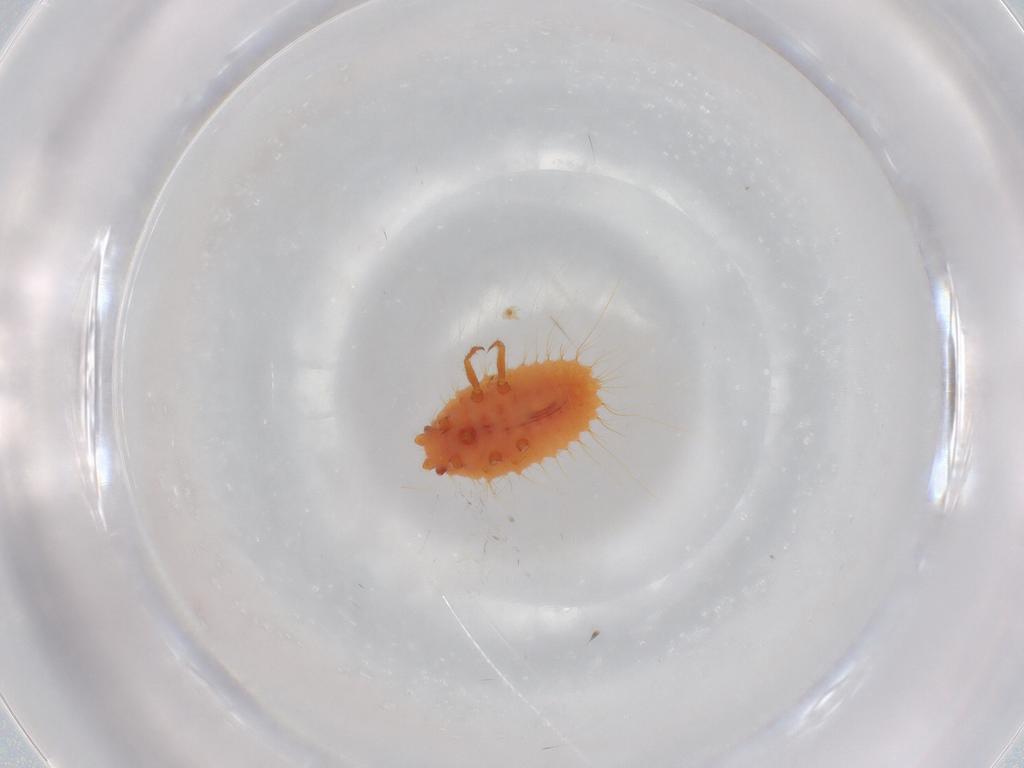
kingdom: Animalia
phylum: Arthropoda
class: Insecta
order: Hemiptera
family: Coccoidea_incertae_sedis
